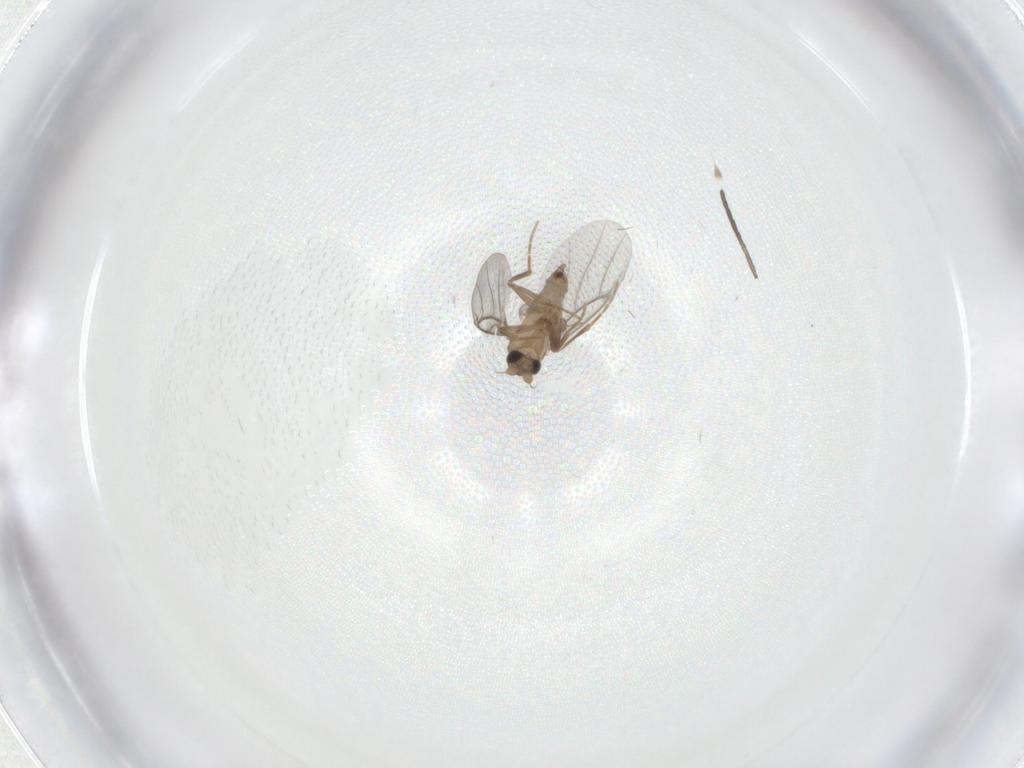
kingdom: Animalia
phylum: Arthropoda
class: Insecta
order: Diptera
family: Sciaridae
